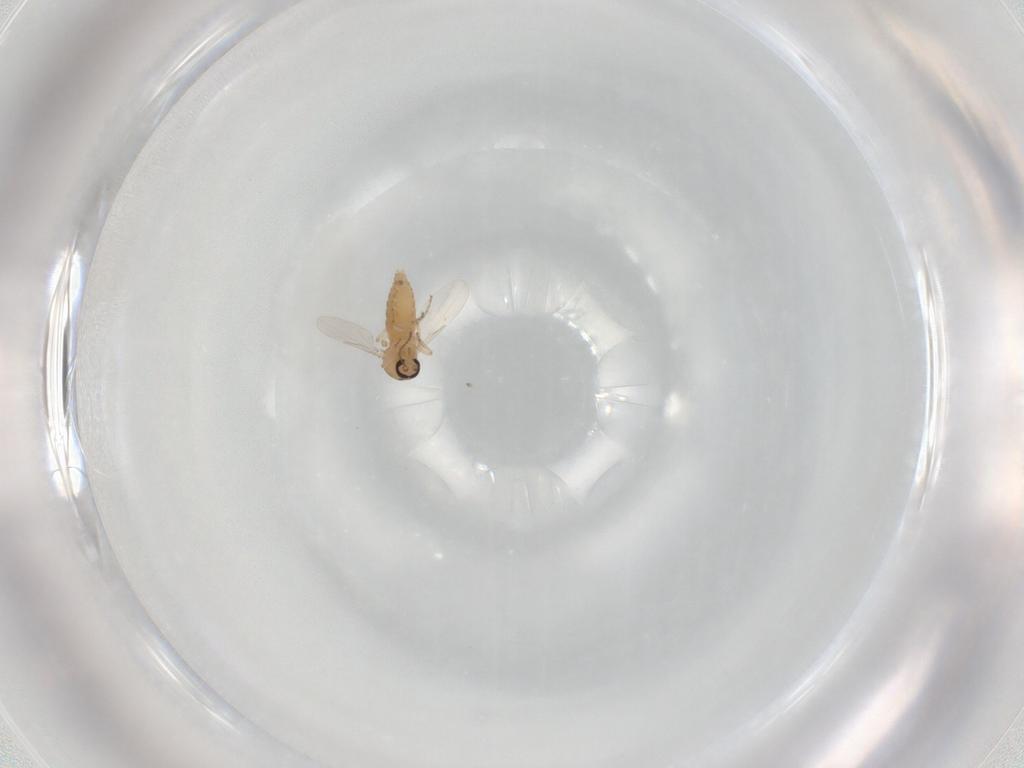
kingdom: Animalia
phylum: Arthropoda
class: Insecta
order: Diptera
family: Ceratopogonidae
